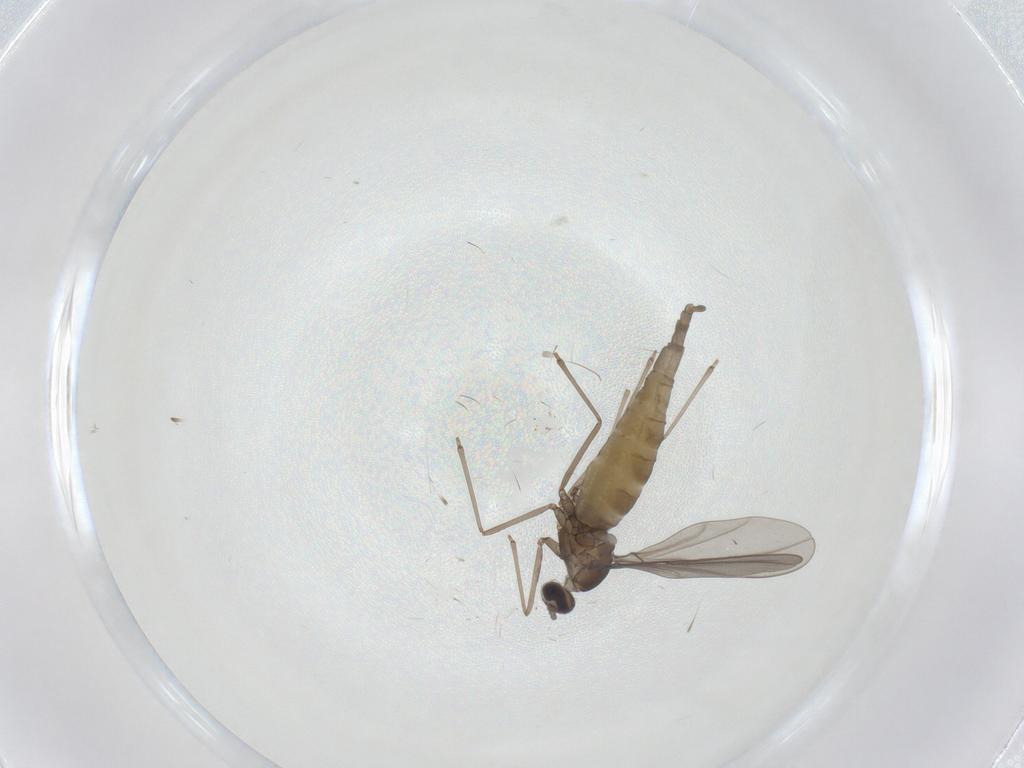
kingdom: Animalia
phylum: Arthropoda
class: Insecta
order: Diptera
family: Cecidomyiidae
